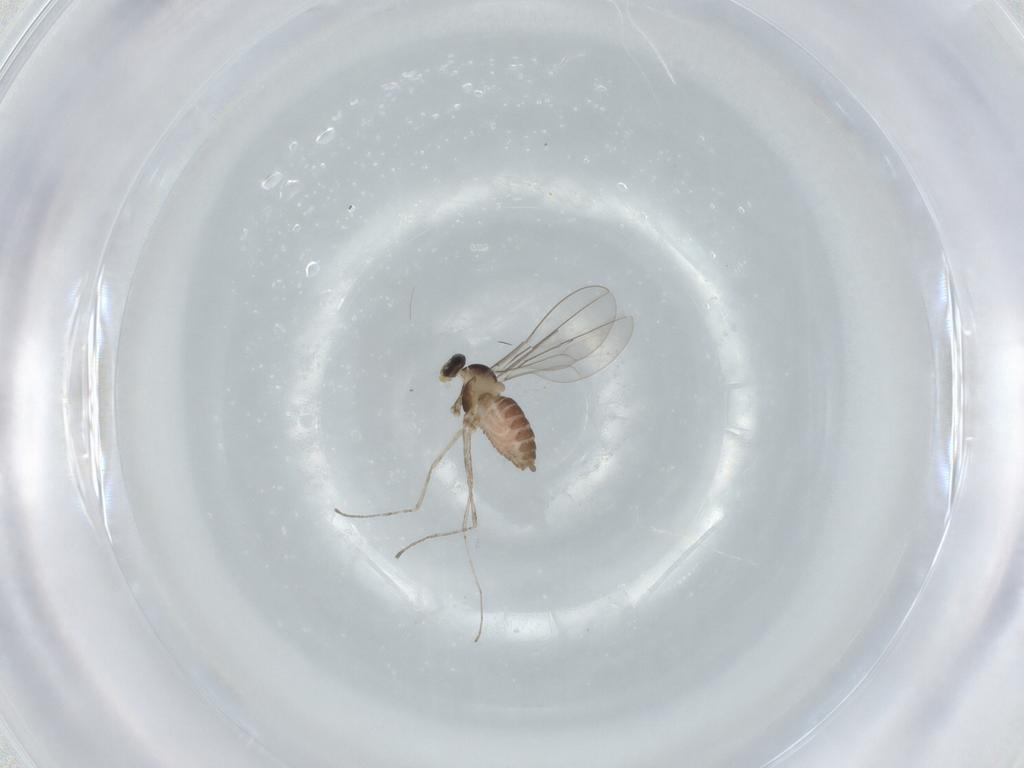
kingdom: Animalia
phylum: Arthropoda
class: Insecta
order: Diptera
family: Cecidomyiidae
